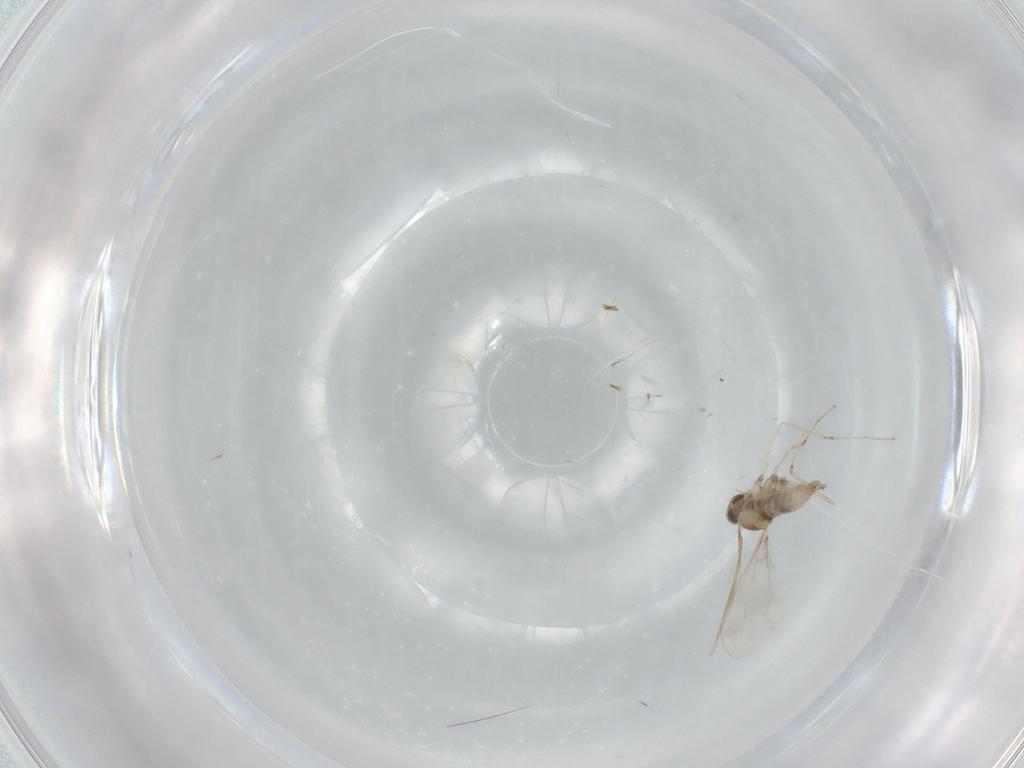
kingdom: Animalia
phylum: Arthropoda
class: Insecta
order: Diptera
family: Cecidomyiidae
